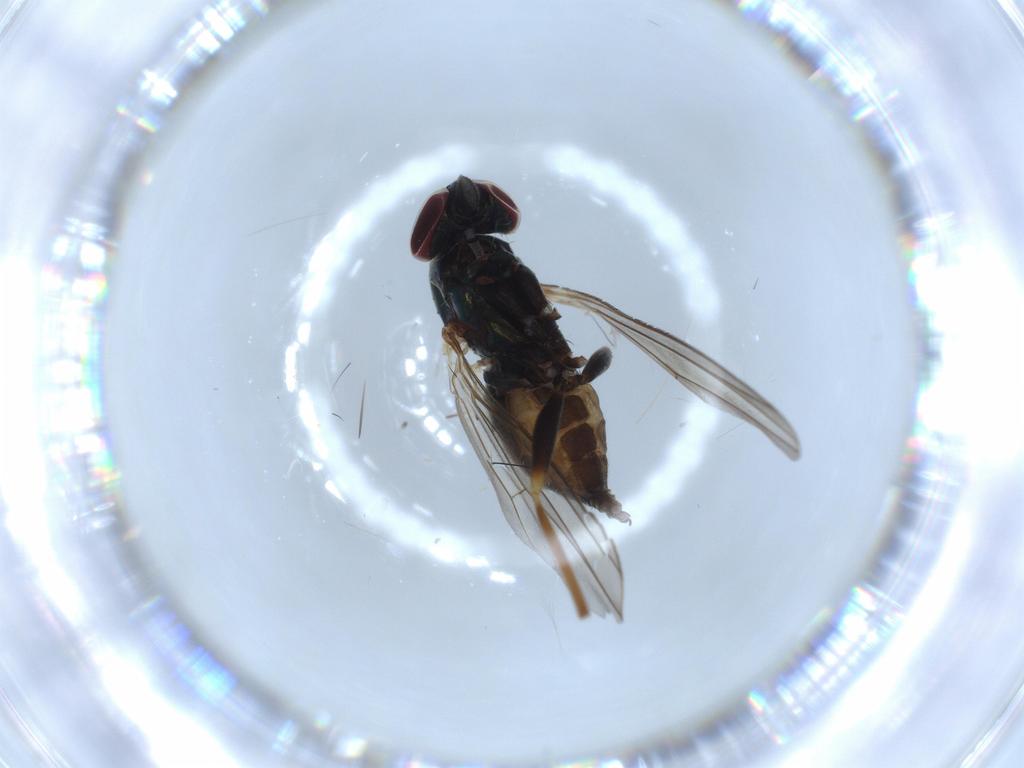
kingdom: Animalia
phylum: Arthropoda
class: Insecta
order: Diptera
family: Dolichopodidae
